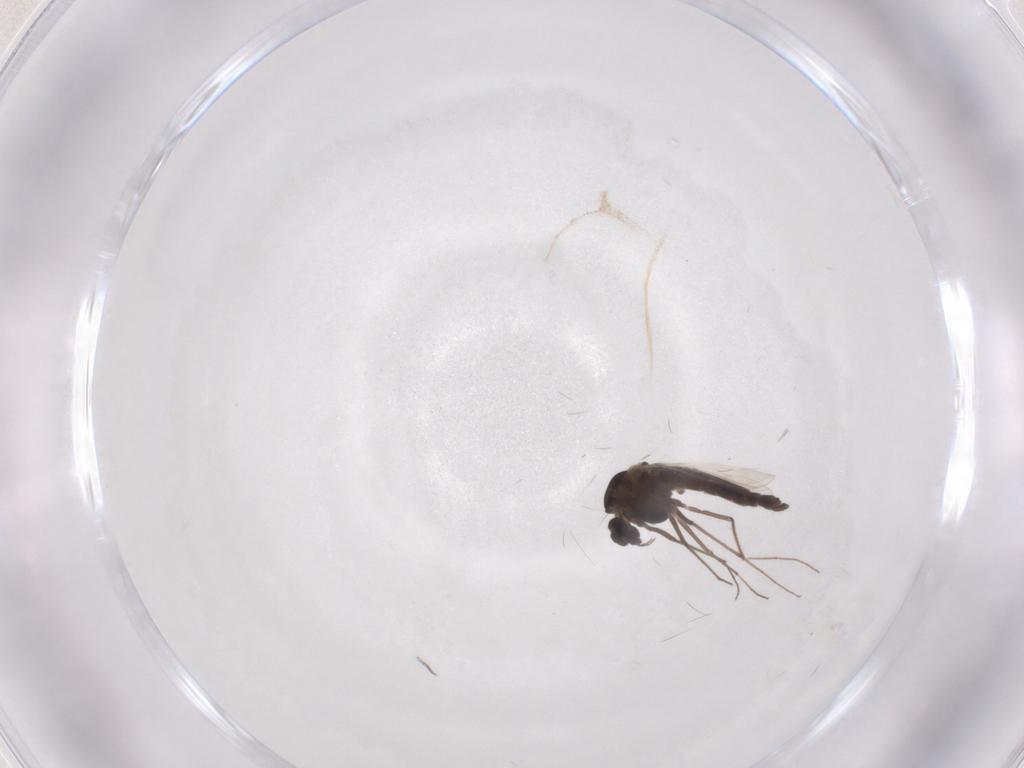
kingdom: Animalia
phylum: Arthropoda
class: Insecta
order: Diptera
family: Chironomidae
